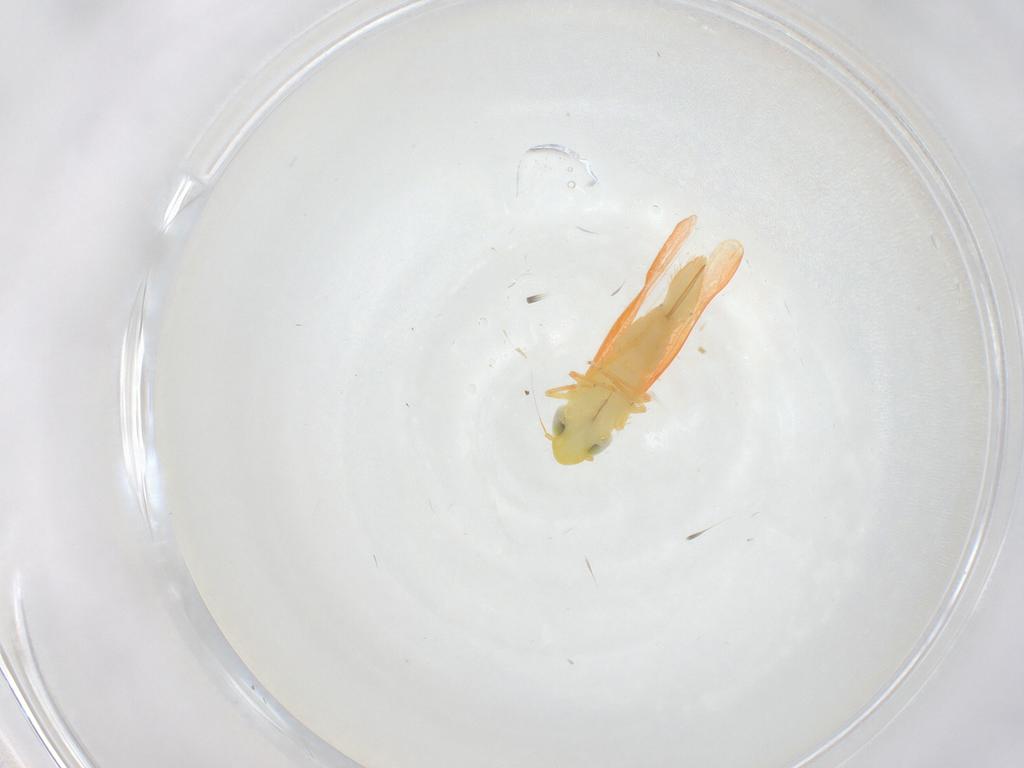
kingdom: Animalia
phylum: Arthropoda
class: Insecta
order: Hemiptera
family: Cicadellidae
